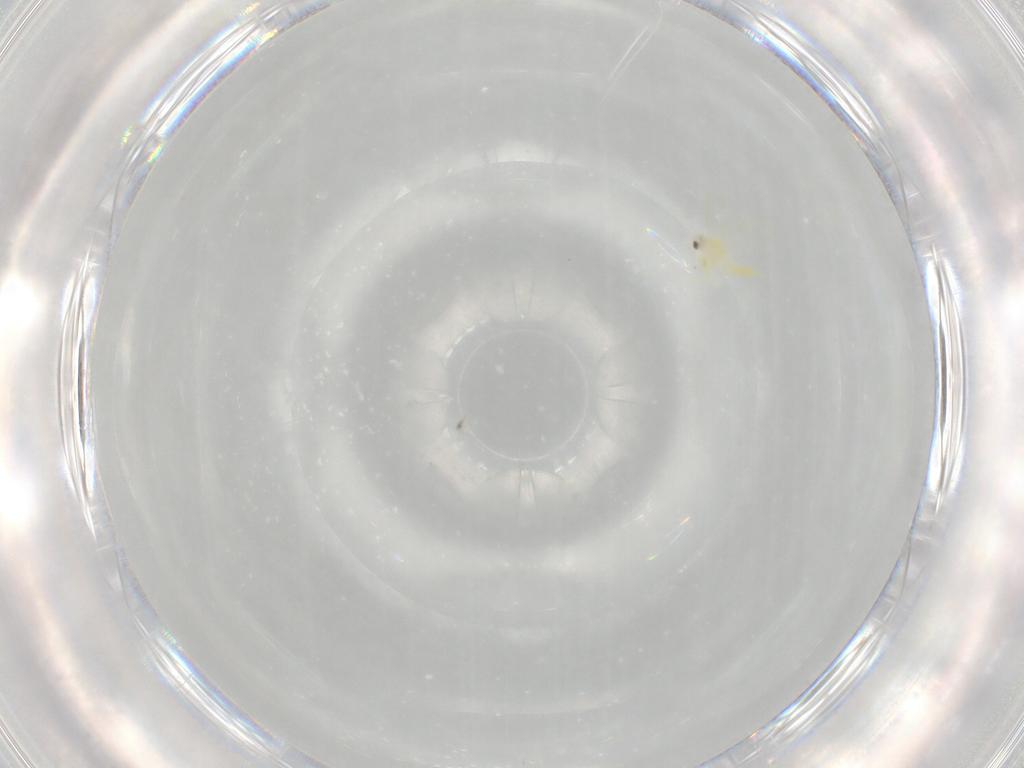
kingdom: Animalia
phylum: Arthropoda
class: Insecta
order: Hemiptera
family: Aleyrodidae
